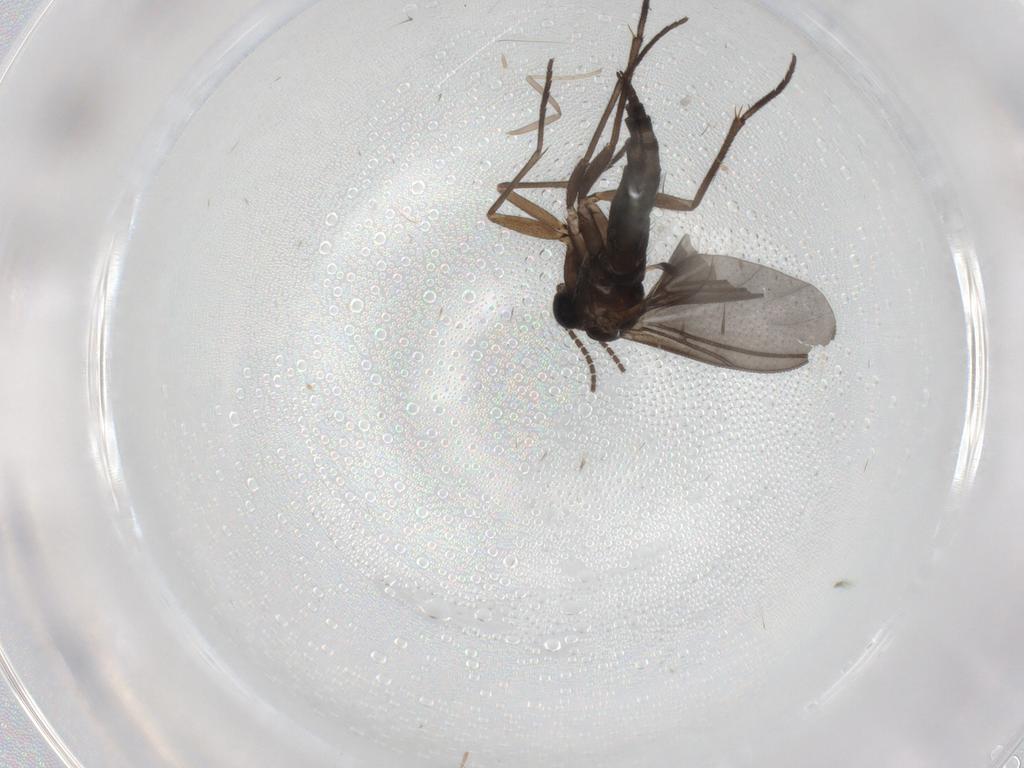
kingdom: Animalia
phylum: Arthropoda
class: Insecta
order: Diptera
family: Sciaridae
